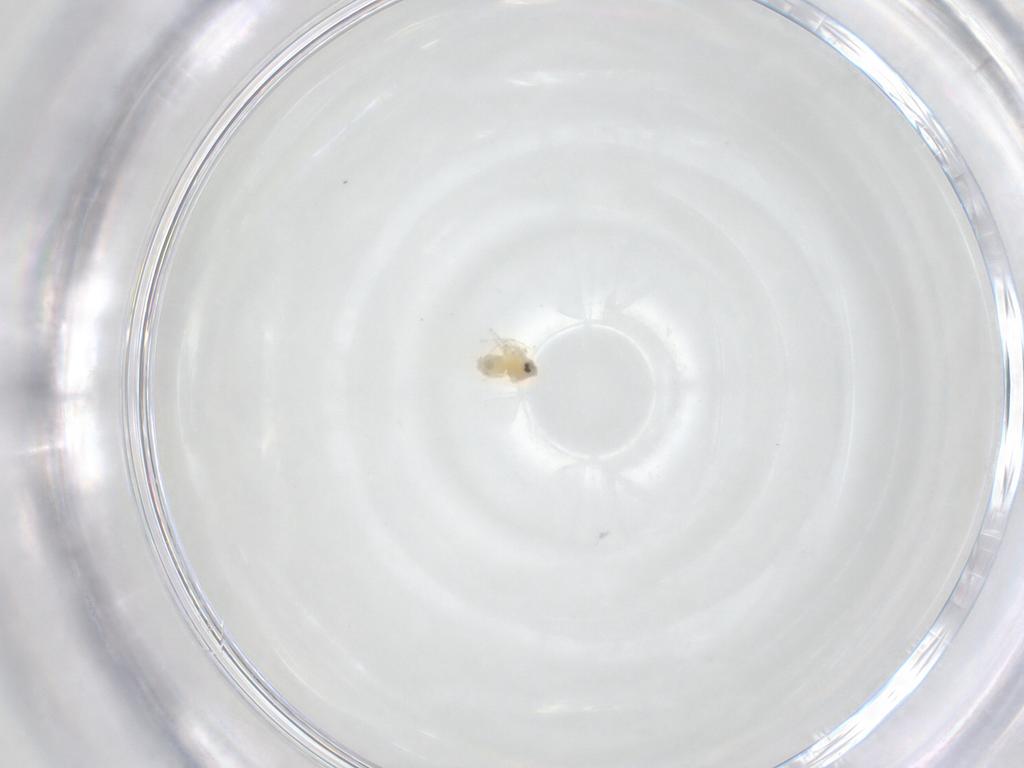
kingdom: Animalia
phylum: Arthropoda
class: Insecta
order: Hemiptera
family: Aleyrodidae
